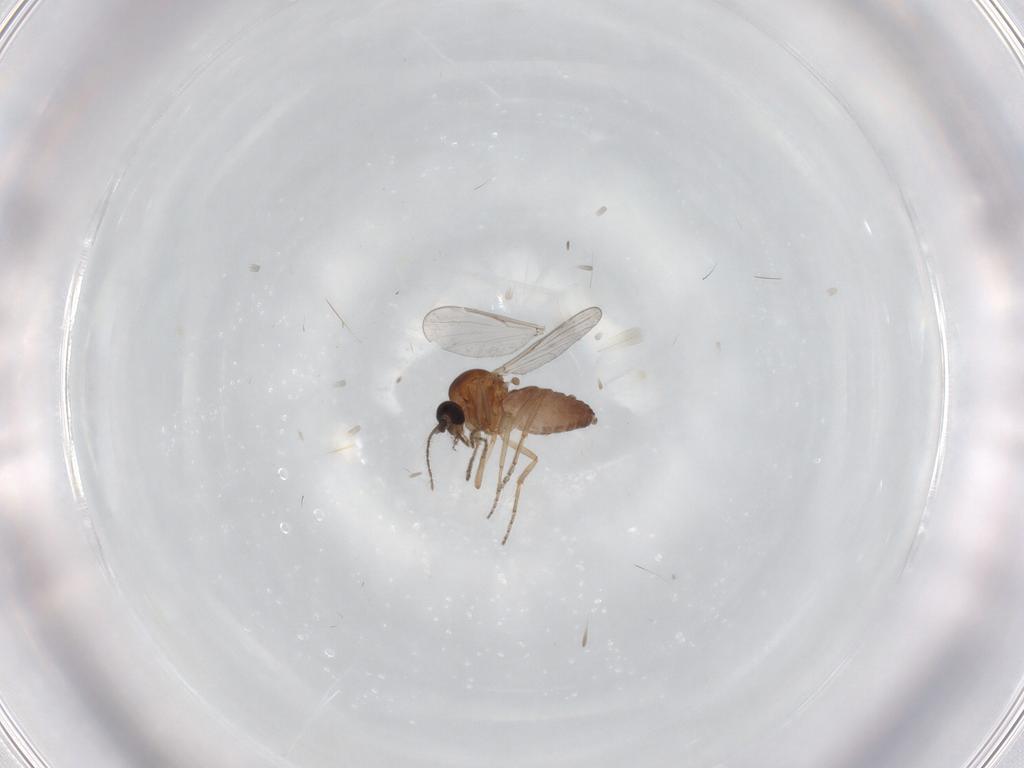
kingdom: Animalia
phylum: Arthropoda
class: Insecta
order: Diptera
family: Ceratopogonidae
